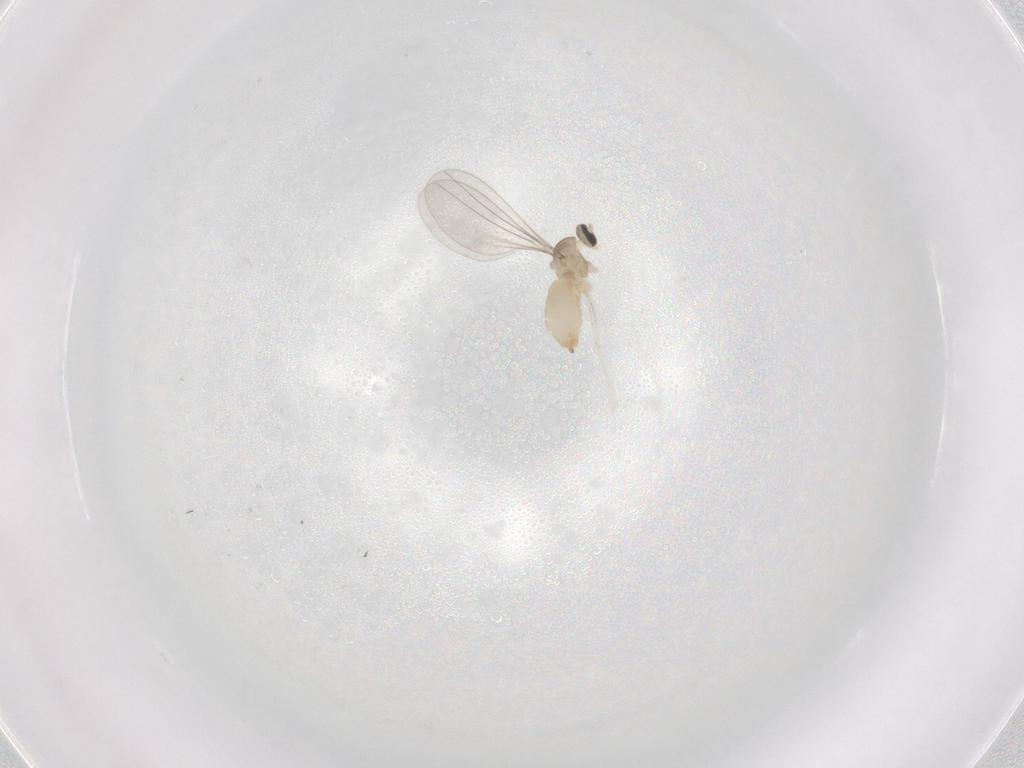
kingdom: Animalia
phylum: Arthropoda
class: Insecta
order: Diptera
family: Cecidomyiidae
